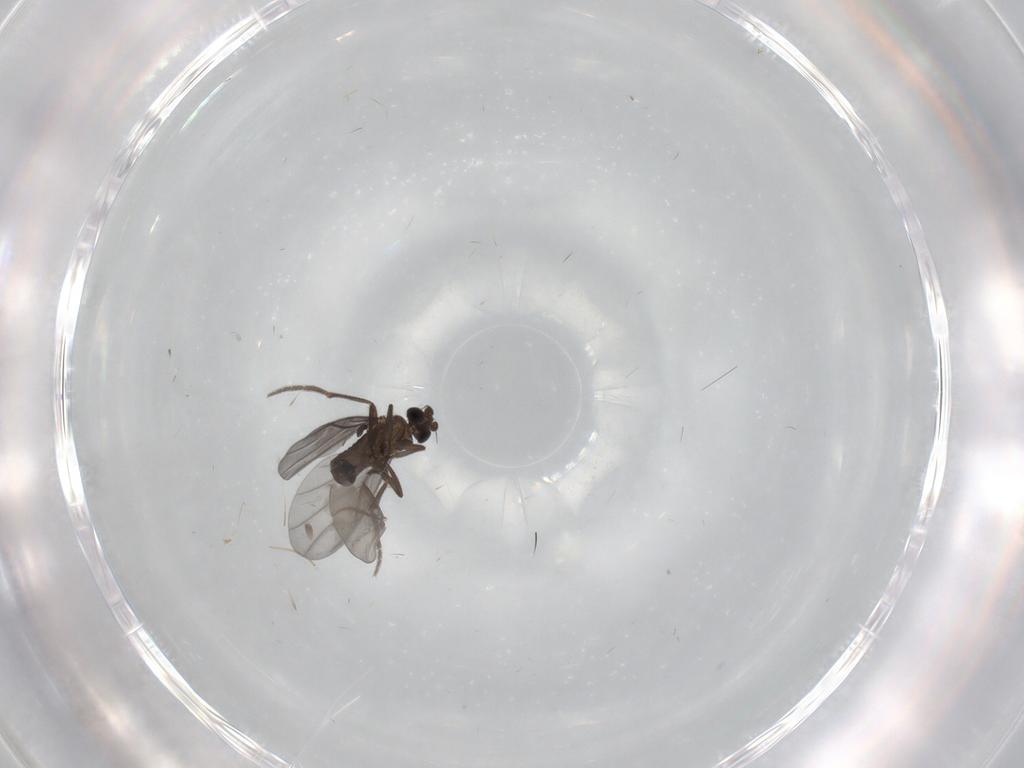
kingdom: Animalia
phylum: Arthropoda
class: Insecta
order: Diptera
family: Phoridae
